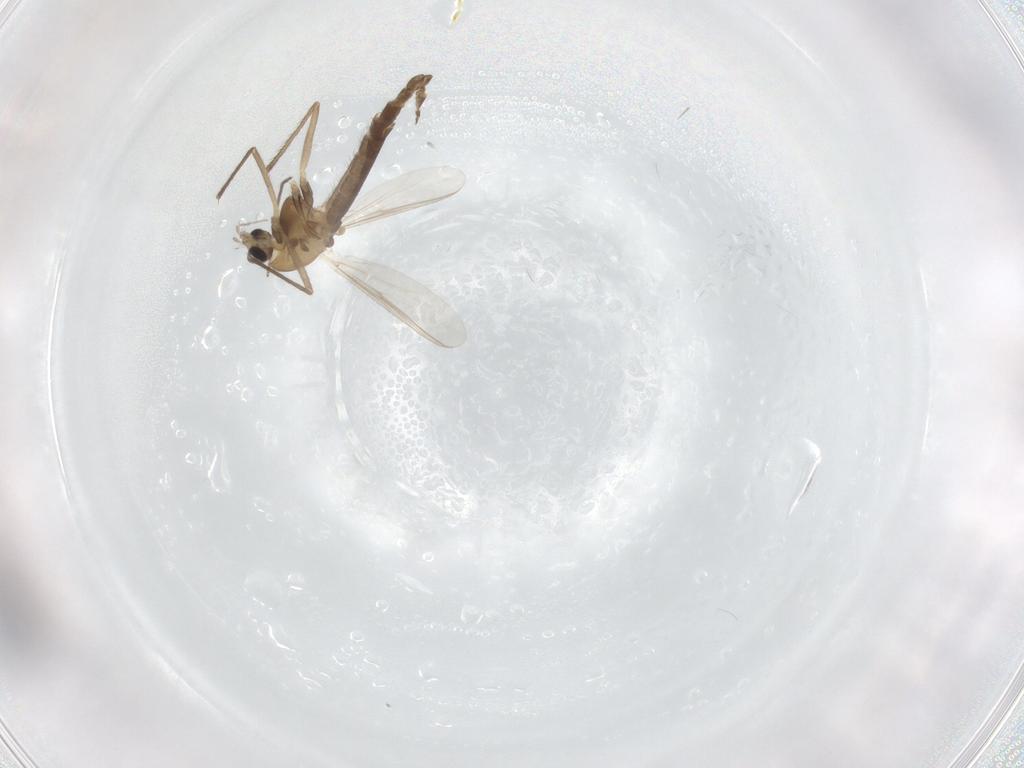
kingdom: Animalia
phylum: Arthropoda
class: Insecta
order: Diptera
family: Chironomidae
